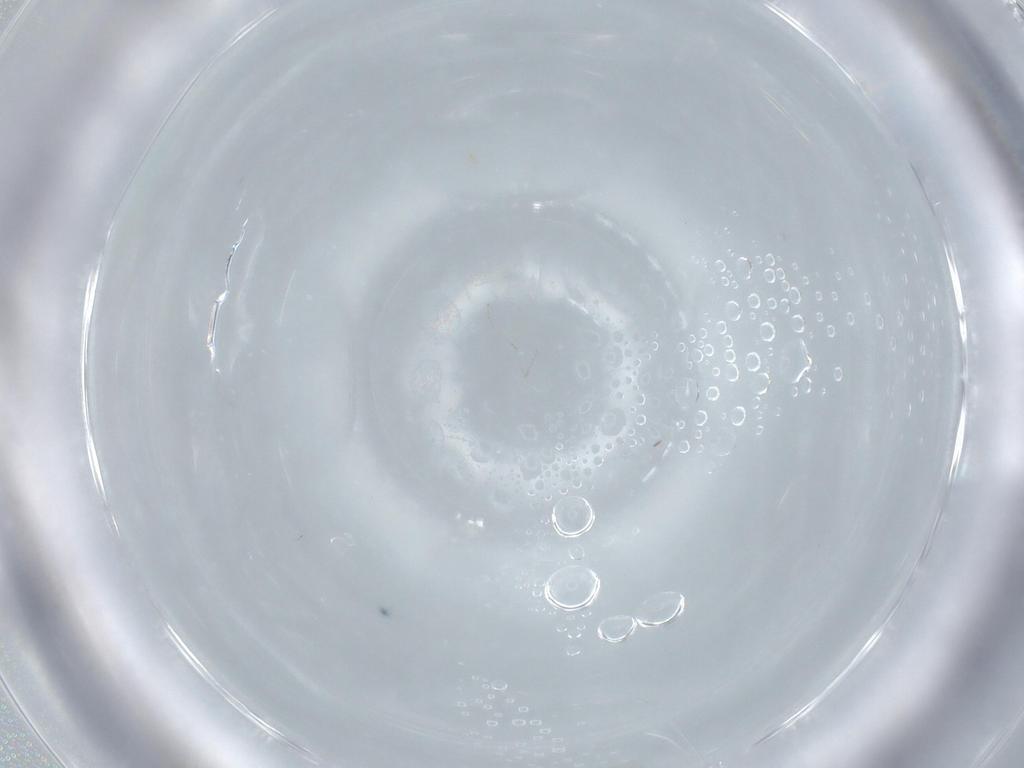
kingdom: Animalia
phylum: Arthropoda
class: Insecta
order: Diptera
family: Cecidomyiidae
